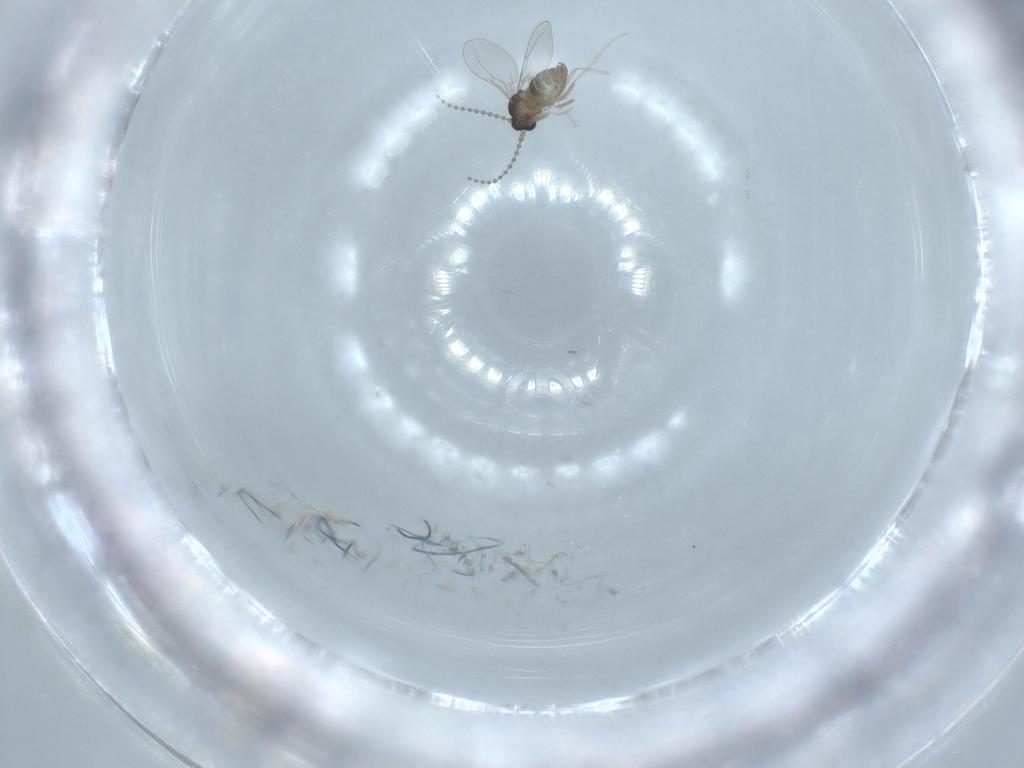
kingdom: Animalia
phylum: Arthropoda
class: Insecta
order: Diptera
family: Cecidomyiidae
